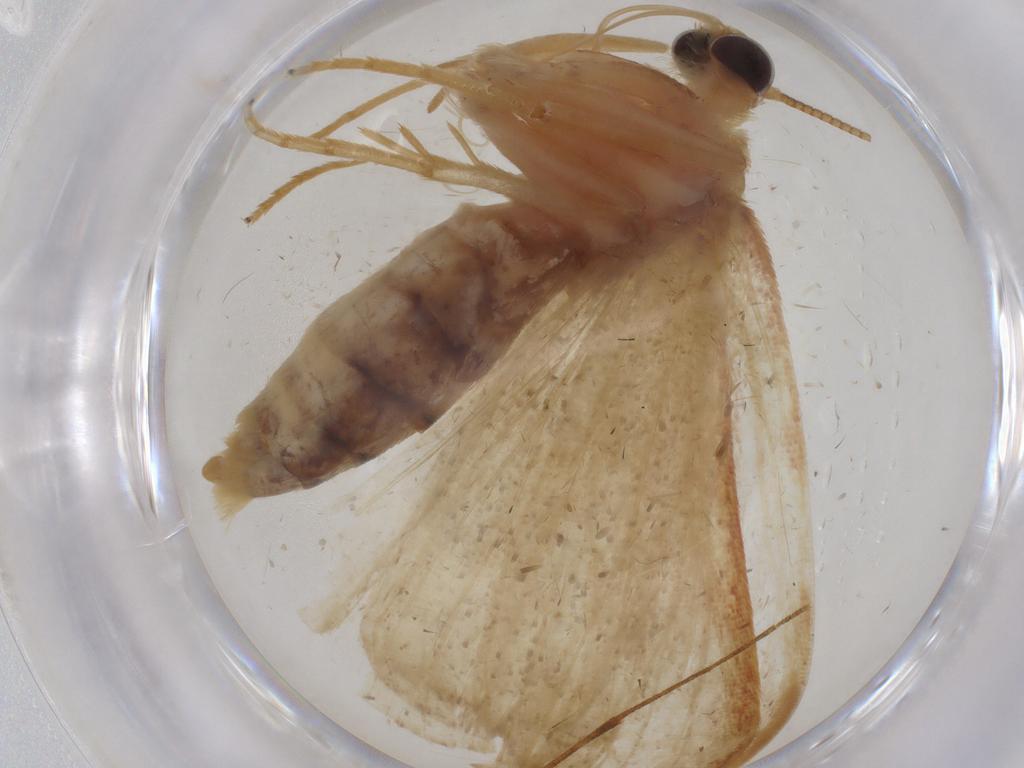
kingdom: Animalia
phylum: Arthropoda
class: Insecta
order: Lepidoptera
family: Geometridae
